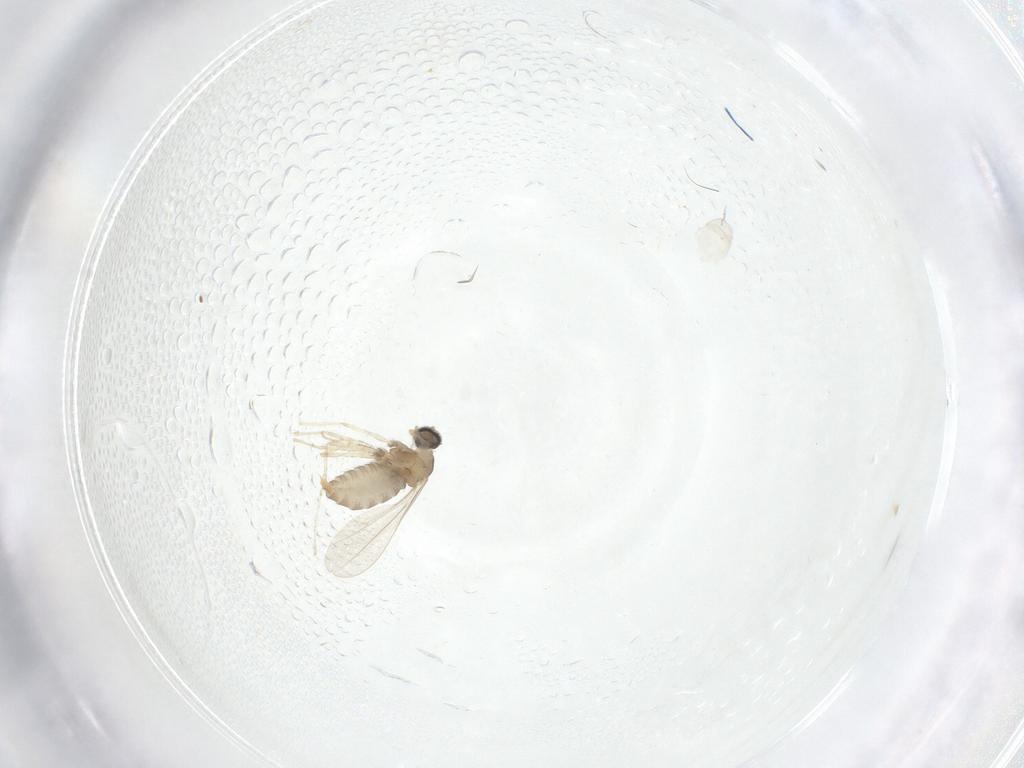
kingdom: Animalia
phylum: Arthropoda
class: Insecta
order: Diptera
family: Cecidomyiidae
